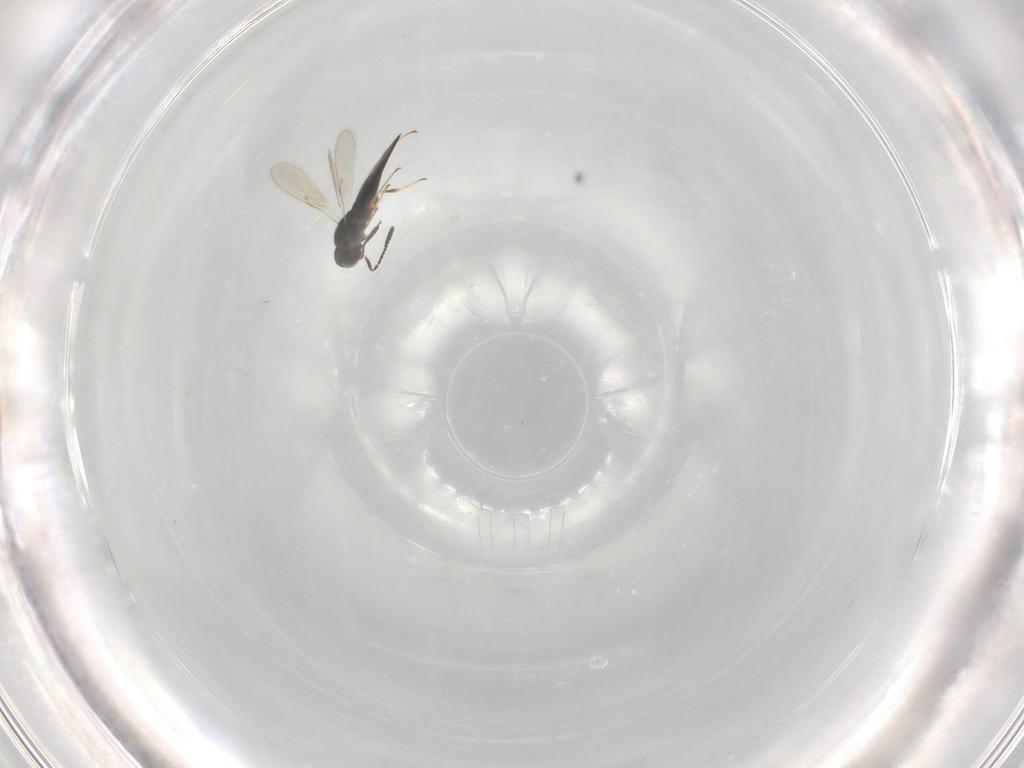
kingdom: Animalia
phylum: Arthropoda
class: Insecta
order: Hymenoptera
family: Scelionidae
